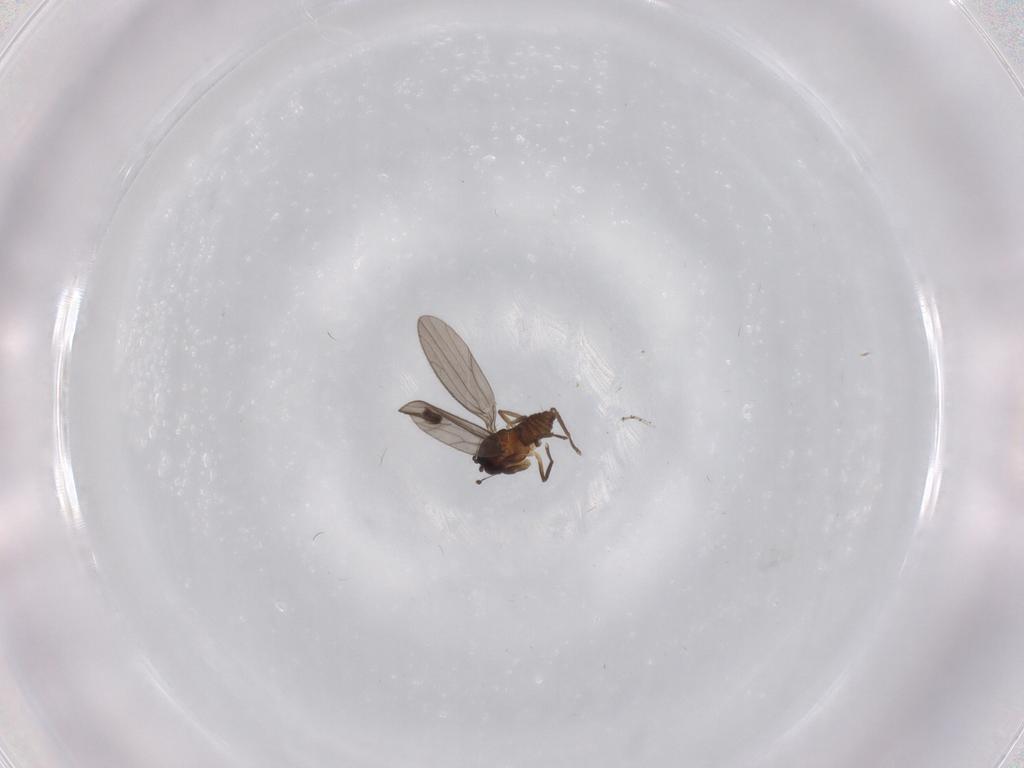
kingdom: Animalia
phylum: Arthropoda
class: Insecta
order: Diptera
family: Empididae
